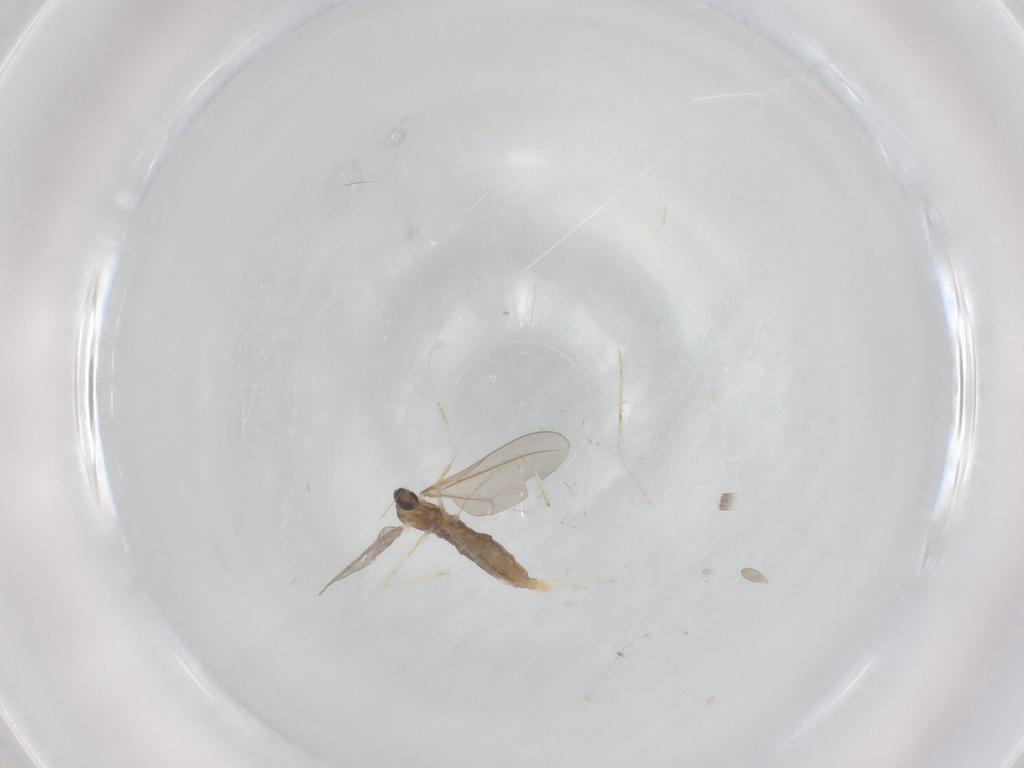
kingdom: Animalia
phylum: Arthropoda
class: Insecta
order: Diptera
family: Cecidomyiidae
